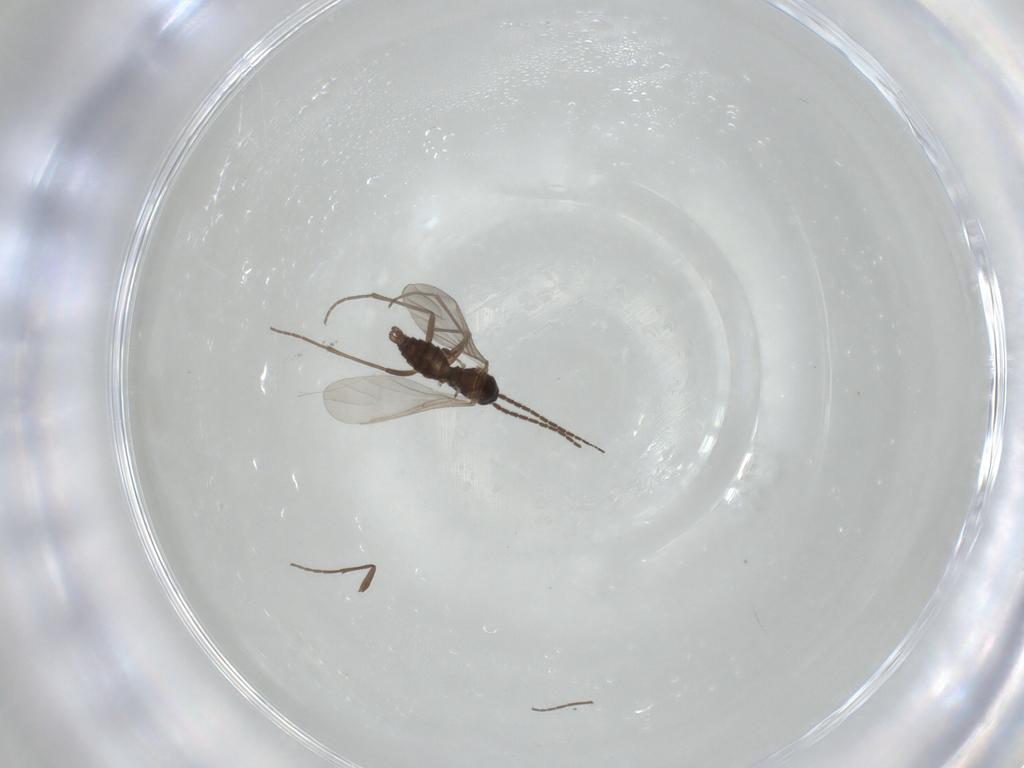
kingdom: Animalia
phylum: Arthropoda
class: Insecta
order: Diptera
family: Sciaridae
